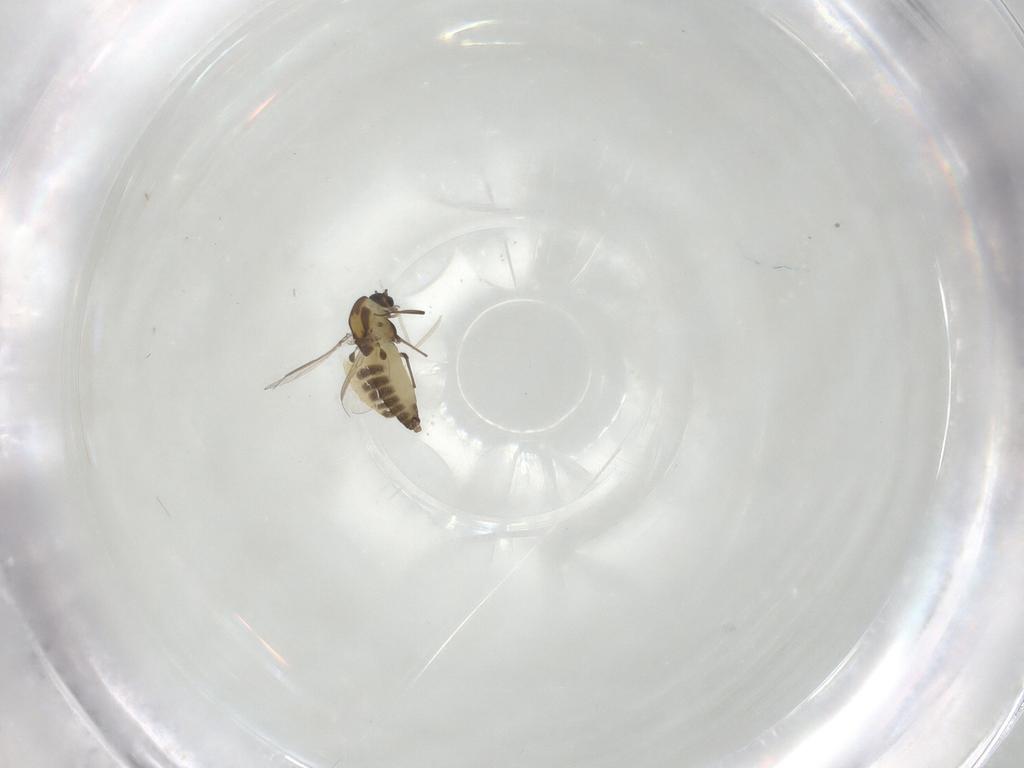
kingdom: Animalia
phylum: Arthropoda
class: Insecta
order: Diptera
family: Chironomidae
